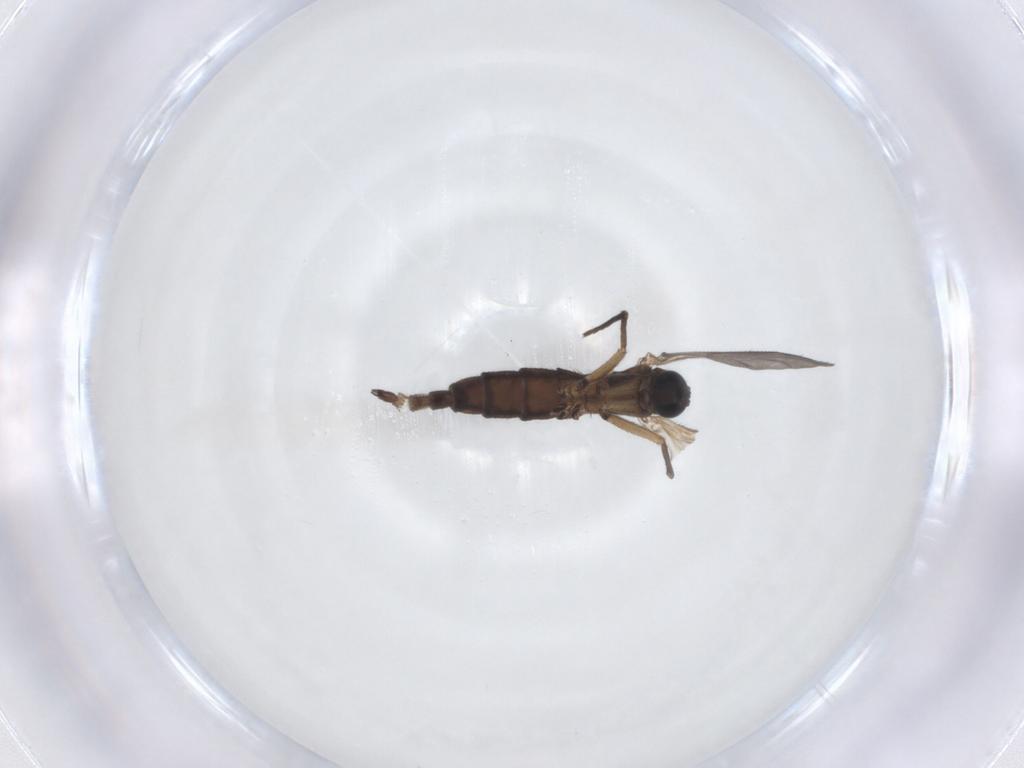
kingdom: Animalia
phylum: Arthropoda
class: Insecta
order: Diptera
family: Sciaridae
